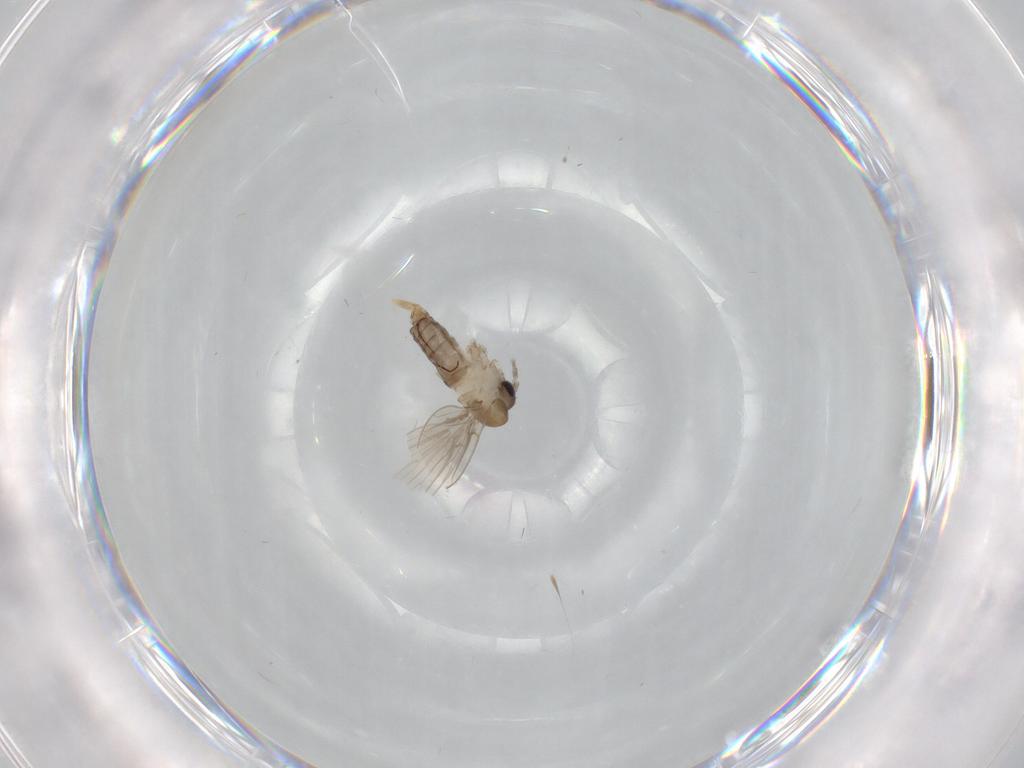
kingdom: Animalia
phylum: Arthropoda
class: Insecta
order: Diptera
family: Psychodidae
